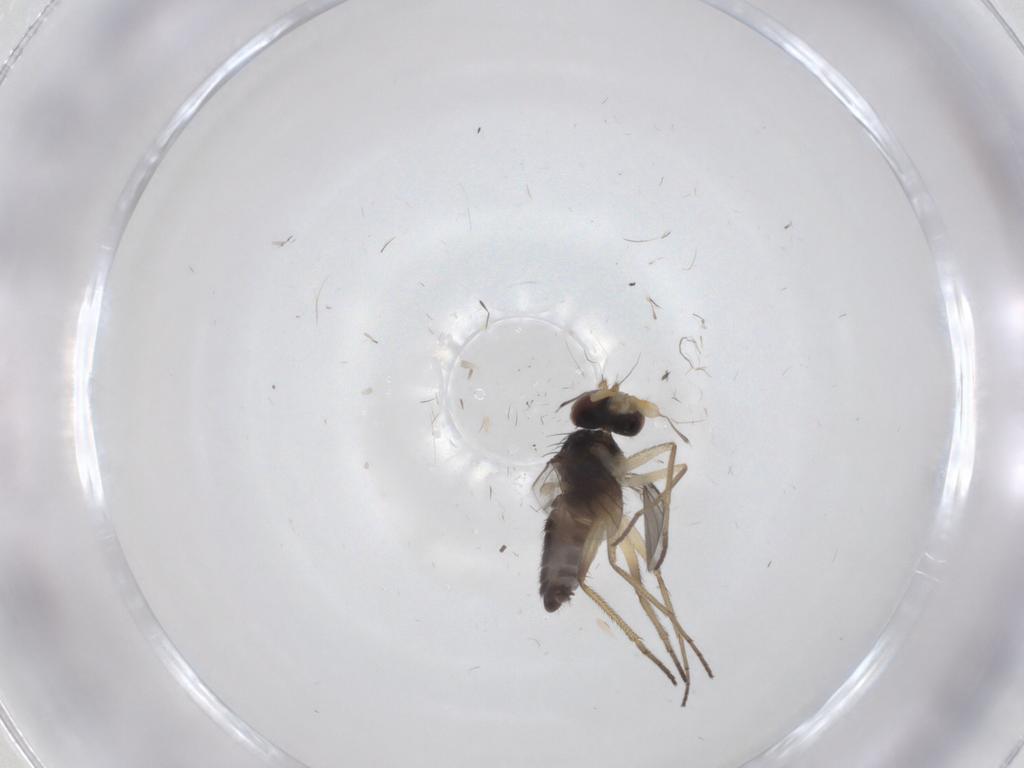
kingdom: Animalia
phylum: Arthropoda
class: Insecta
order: Diptera
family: Dolichopodidae
